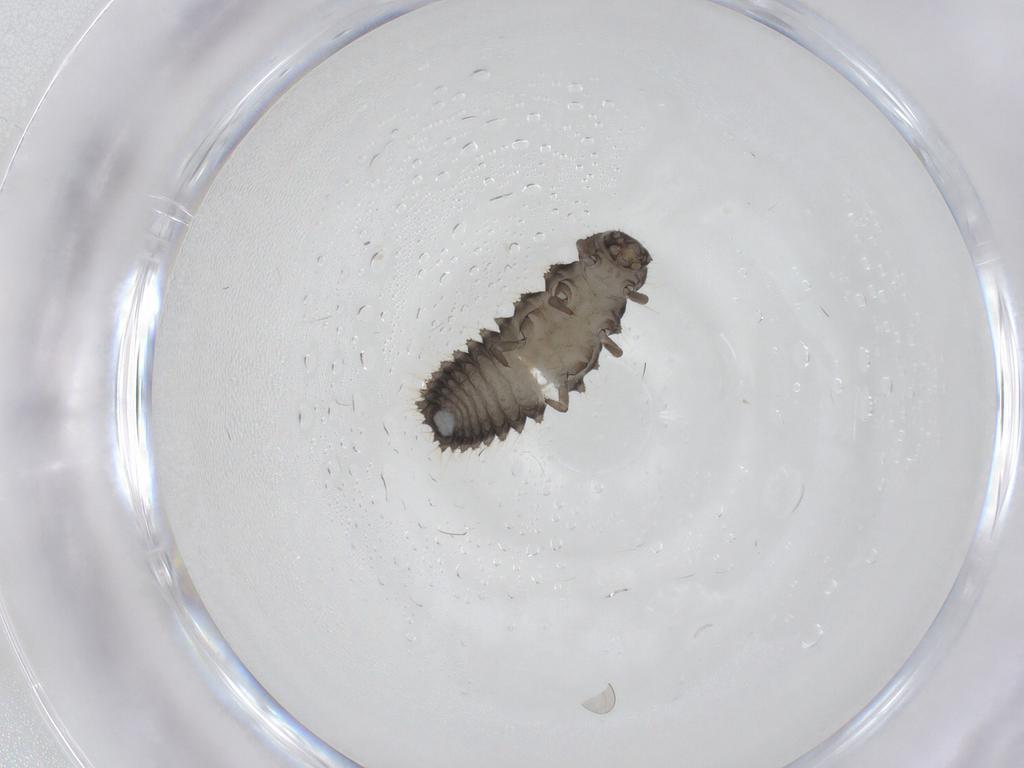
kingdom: Animalia
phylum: Arthropoda
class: Insecta
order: Coleoptera
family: Coccinellidae
